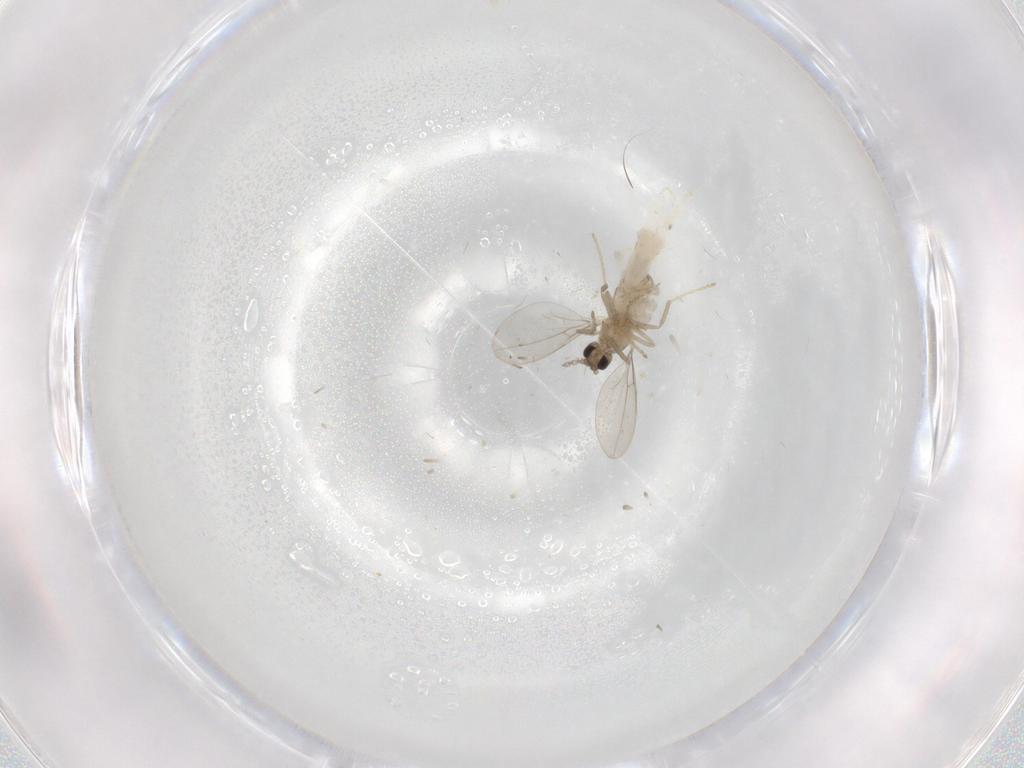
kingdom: Animalia
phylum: Arthropoda
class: Insecta
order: Diptera
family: Cecidomyiidae
